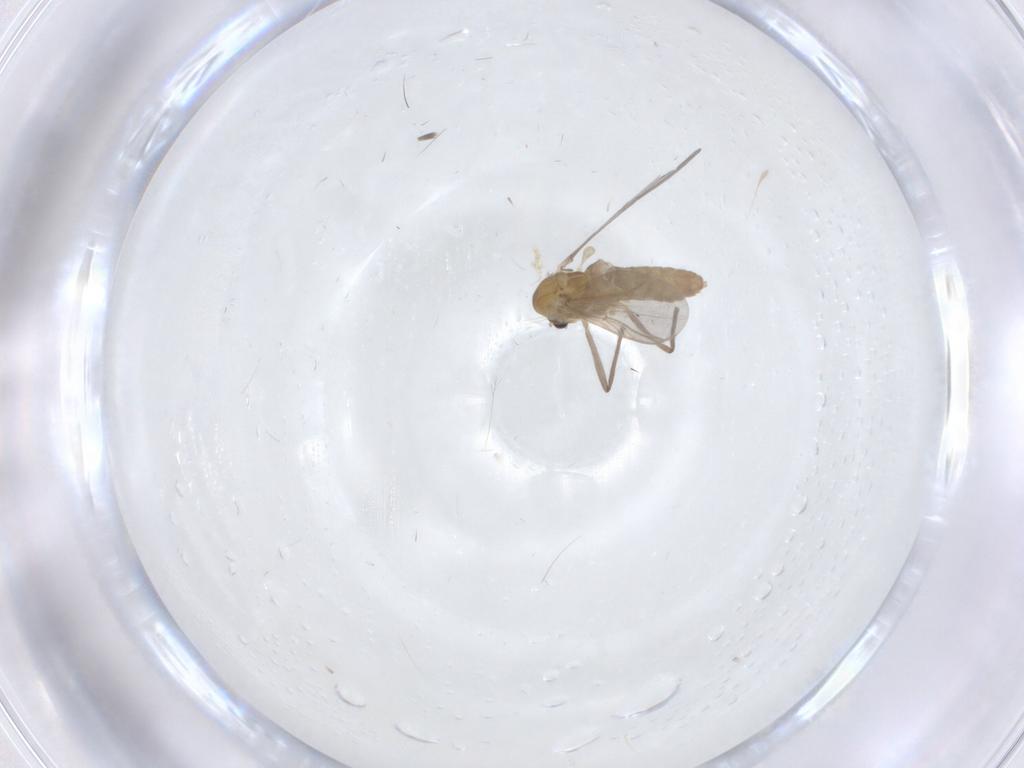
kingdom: Animalia
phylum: Arthropoda
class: Insecta
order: Diptera
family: Chironomidae
